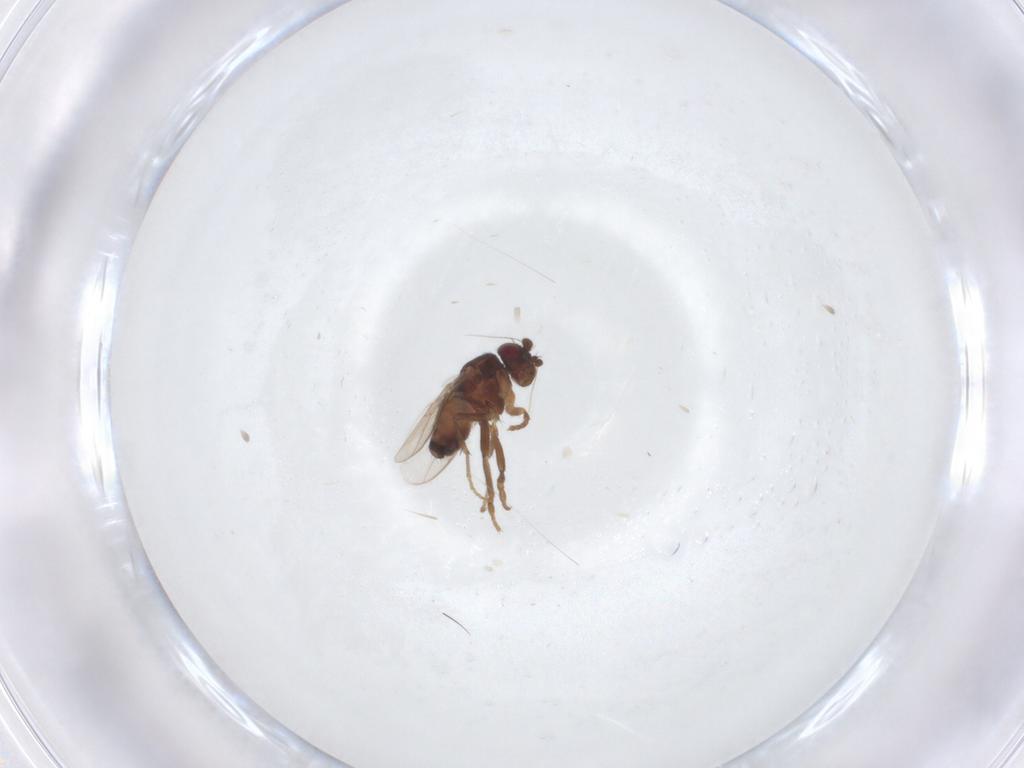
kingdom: Animalia
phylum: Arthropoda
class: Insecta
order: Diptera
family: Sphaeroceridae
